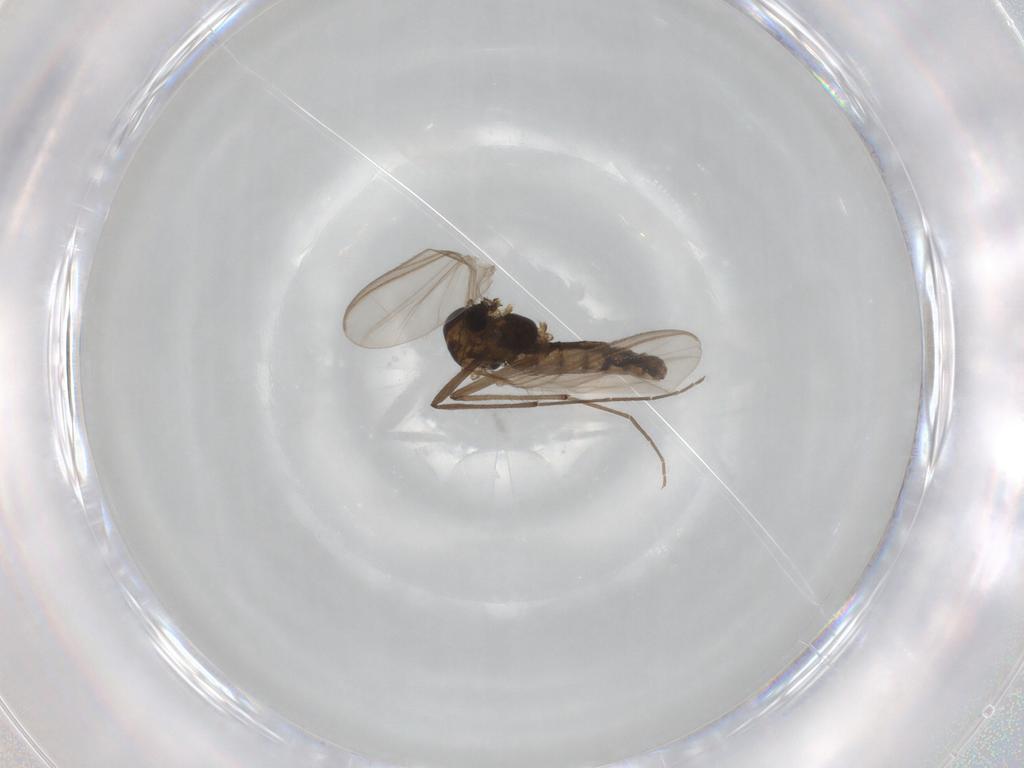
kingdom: Animalia
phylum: Arthropoda
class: Insecta
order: Diptera
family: Chironomidae
